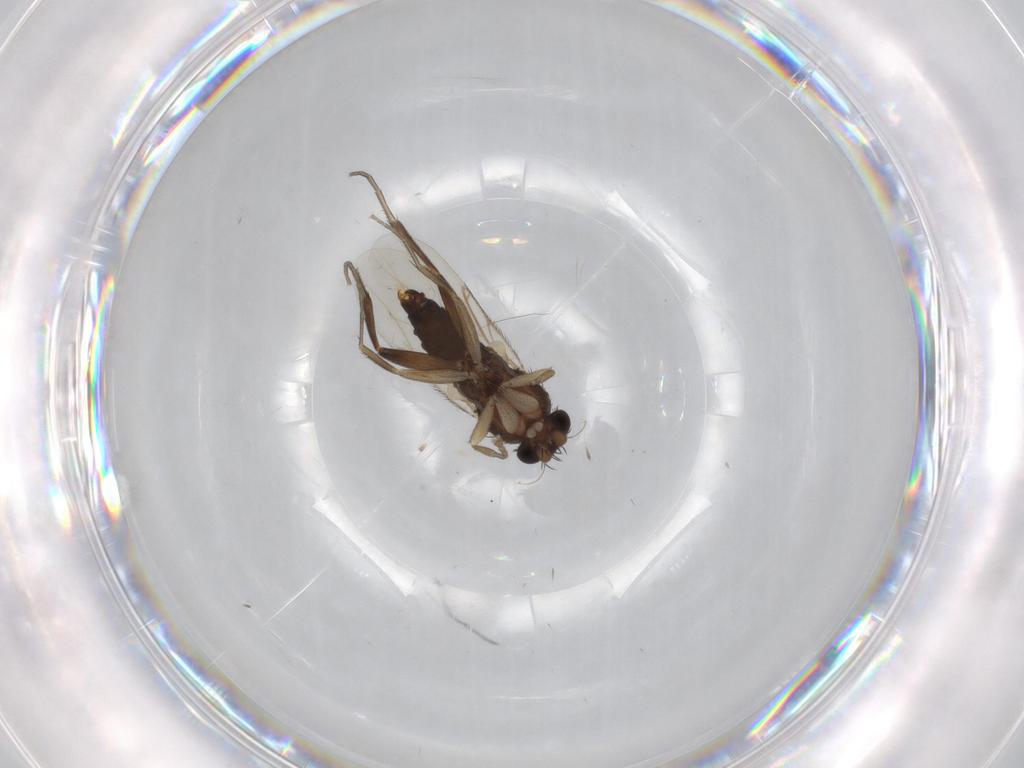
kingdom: Animalia
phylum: Arthropoda
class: Insecta
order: Diptera
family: Phoridae
